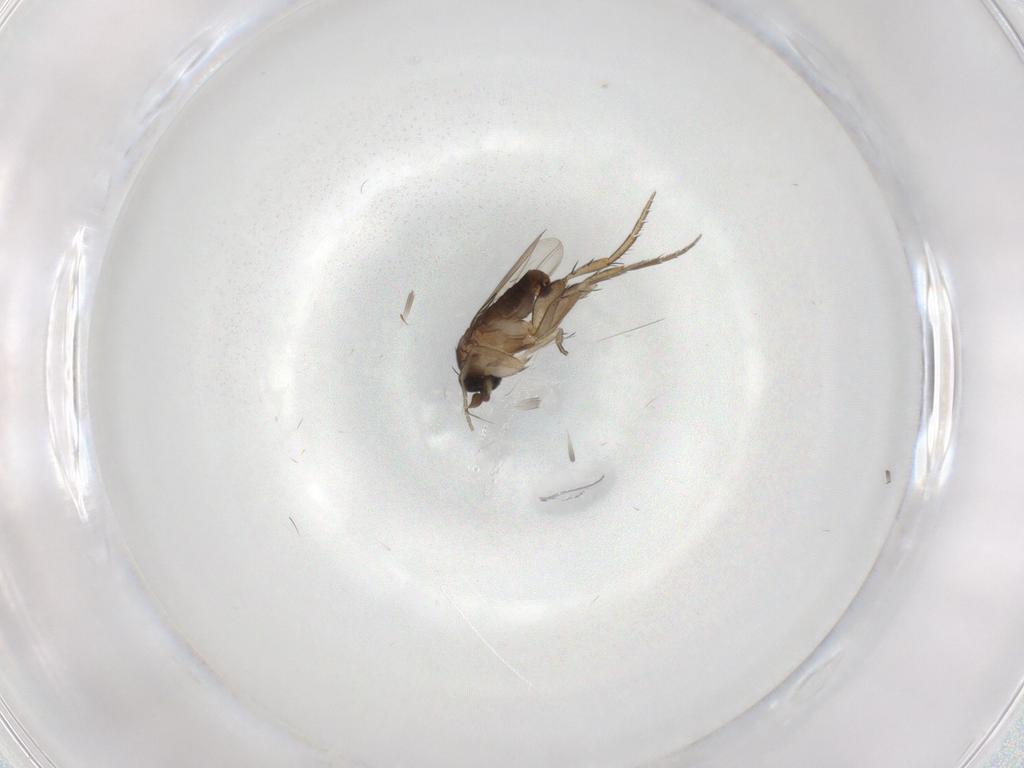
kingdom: Animalia
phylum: Arthropoda
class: Insecta
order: Diptera
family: Phoridae
